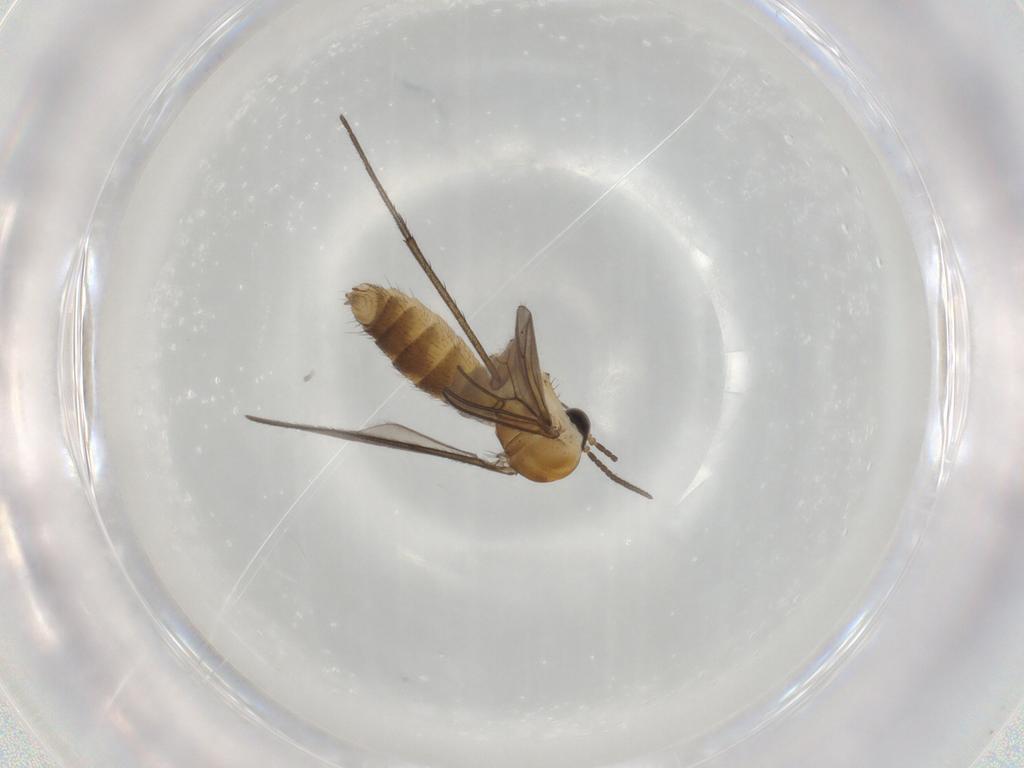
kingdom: Animalia
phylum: Arthropoda
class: Insecta
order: Diptera
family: Mycetophilidae
